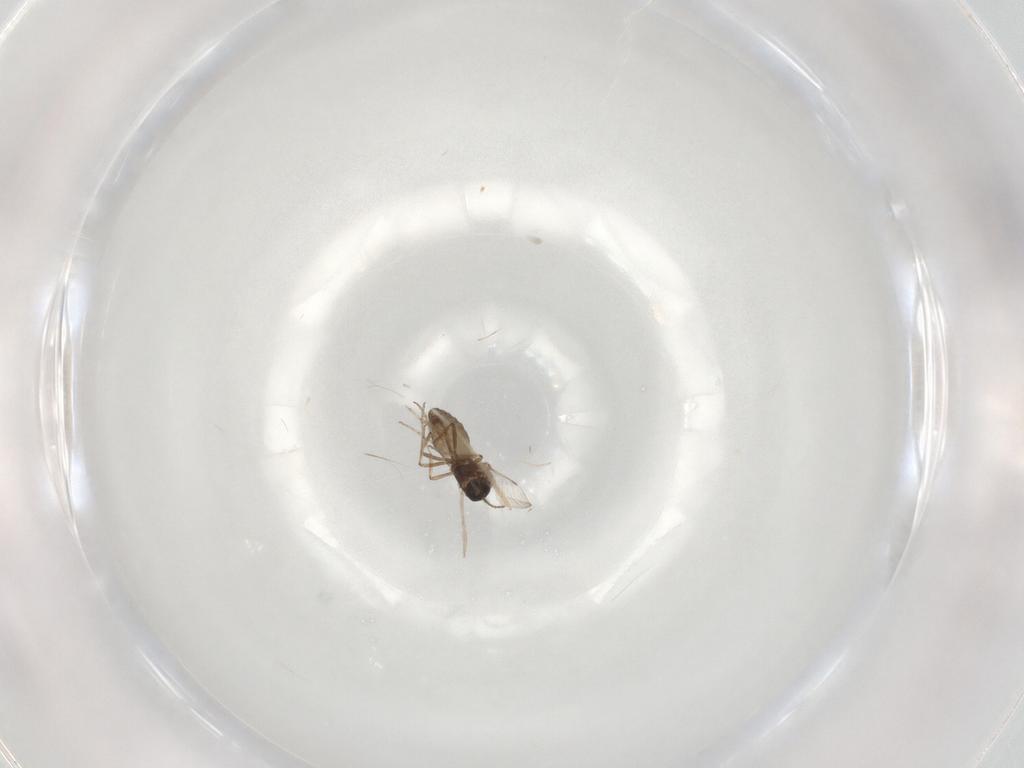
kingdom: Animalia
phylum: Arthropoda
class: Insecta
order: Diptera
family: Ceratopogonidae
